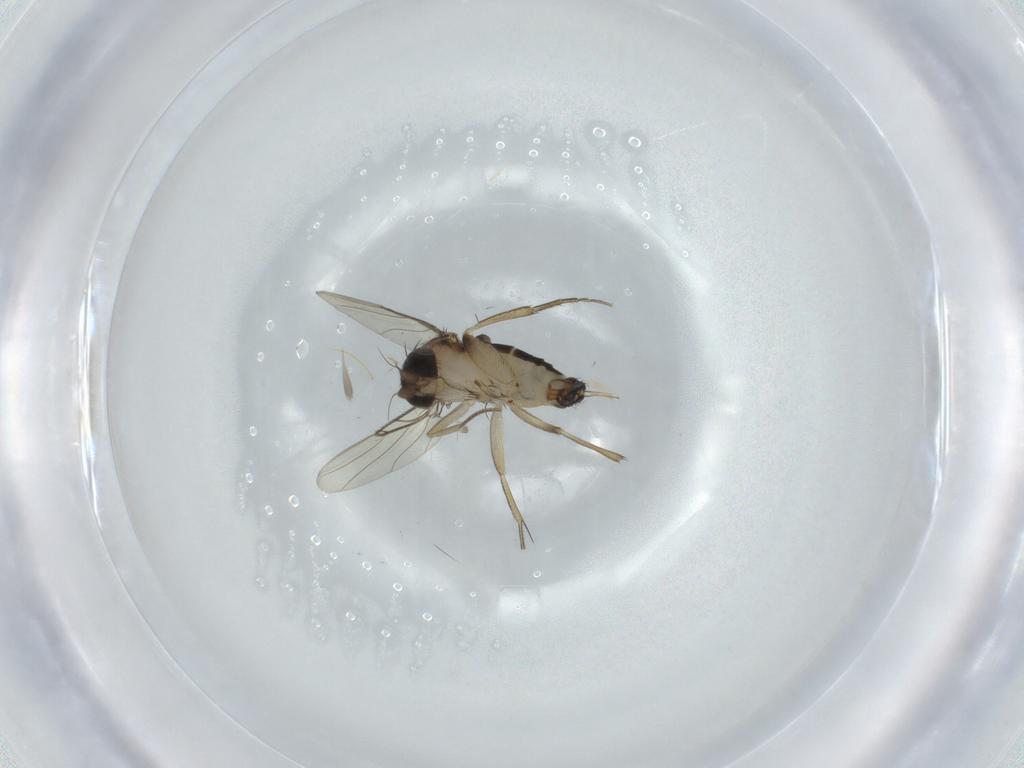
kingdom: Animalia
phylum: Arthropoda
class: Insecta
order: Diptera
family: Phoridae
